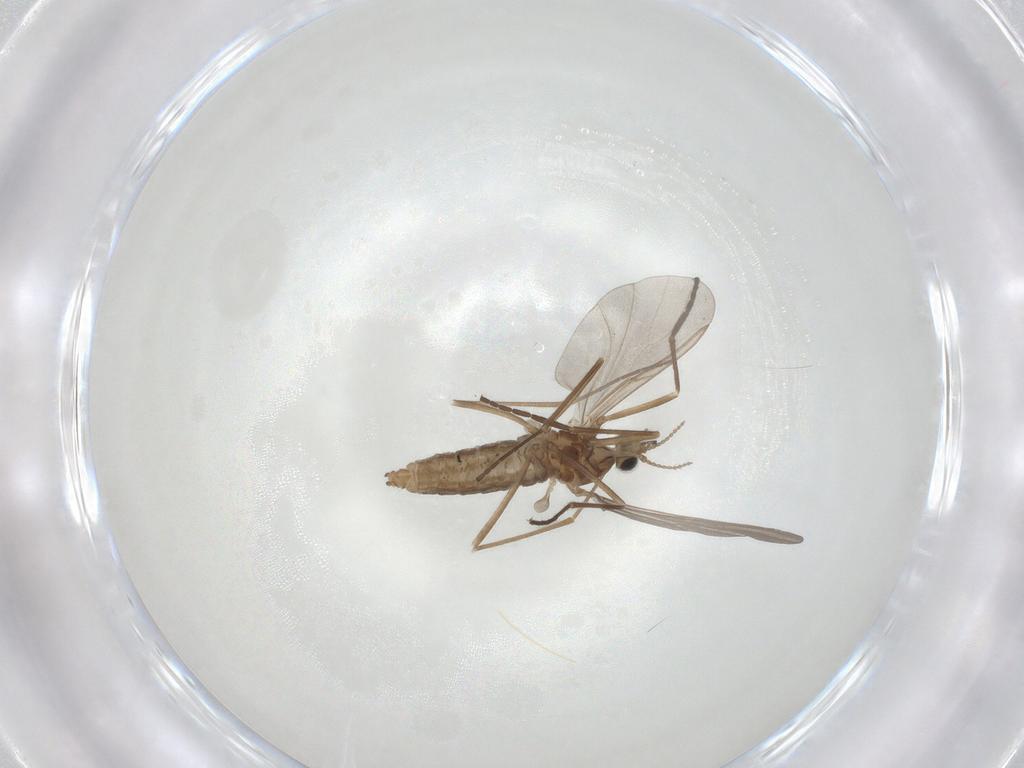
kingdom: Animalia
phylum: Arthropoda
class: Insecta
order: Diptera
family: Cecidomyiidae
